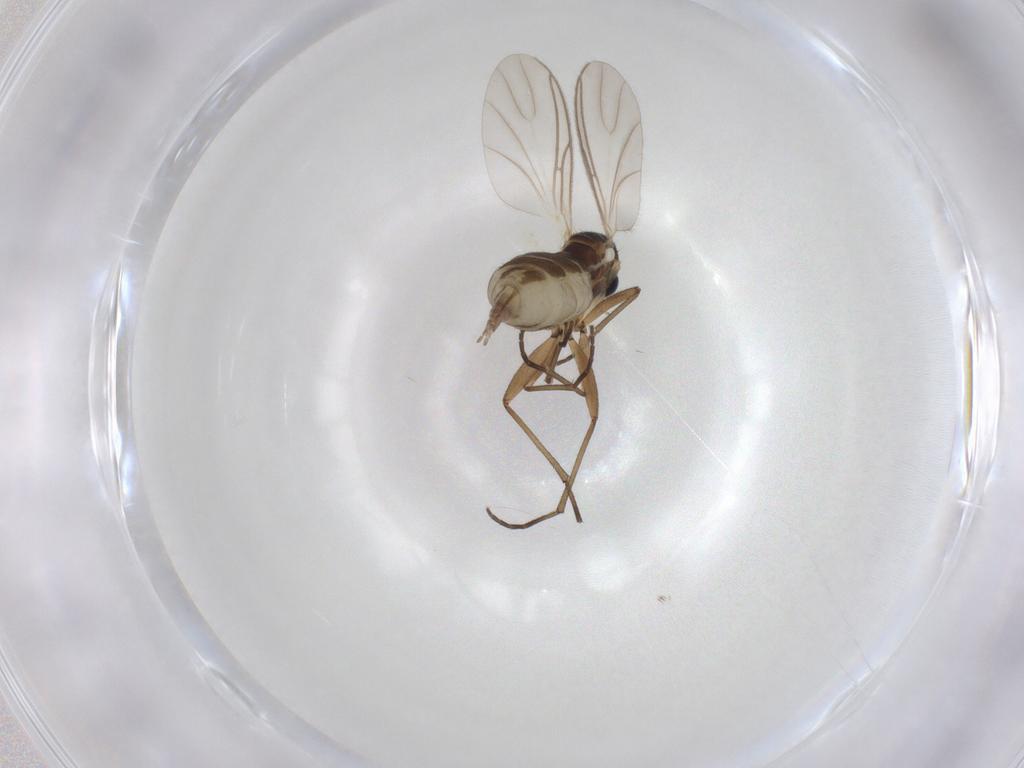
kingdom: Animalia
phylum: Arthropoda
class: Insecta
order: Diptera
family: Sciaridae
